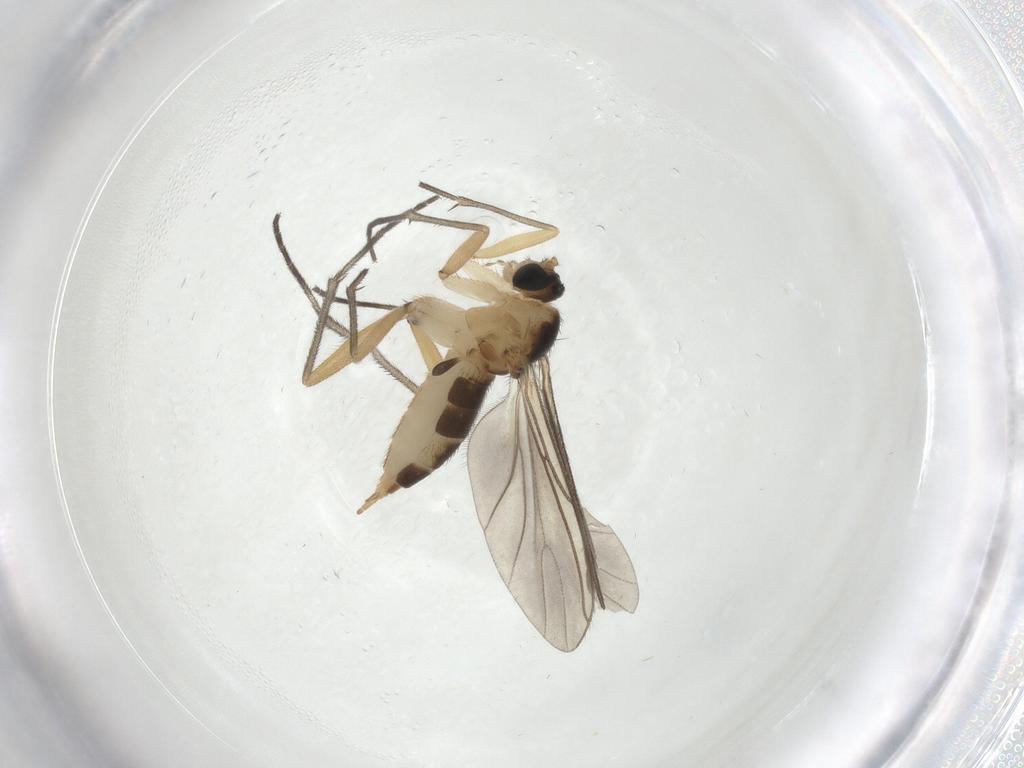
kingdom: Animalia
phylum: Arthropoda
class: Insecta
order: Diptera
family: Sciaridae
